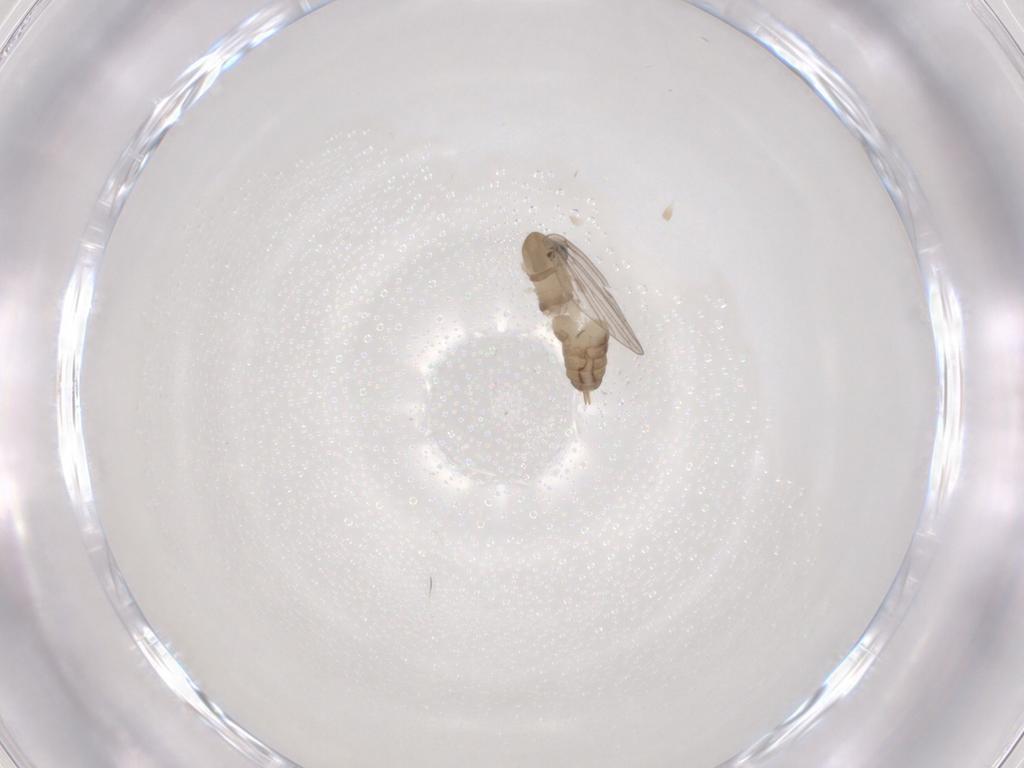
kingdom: Animalia
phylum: Arthropoda
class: Insecta
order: Diptera
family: Psychodidae
